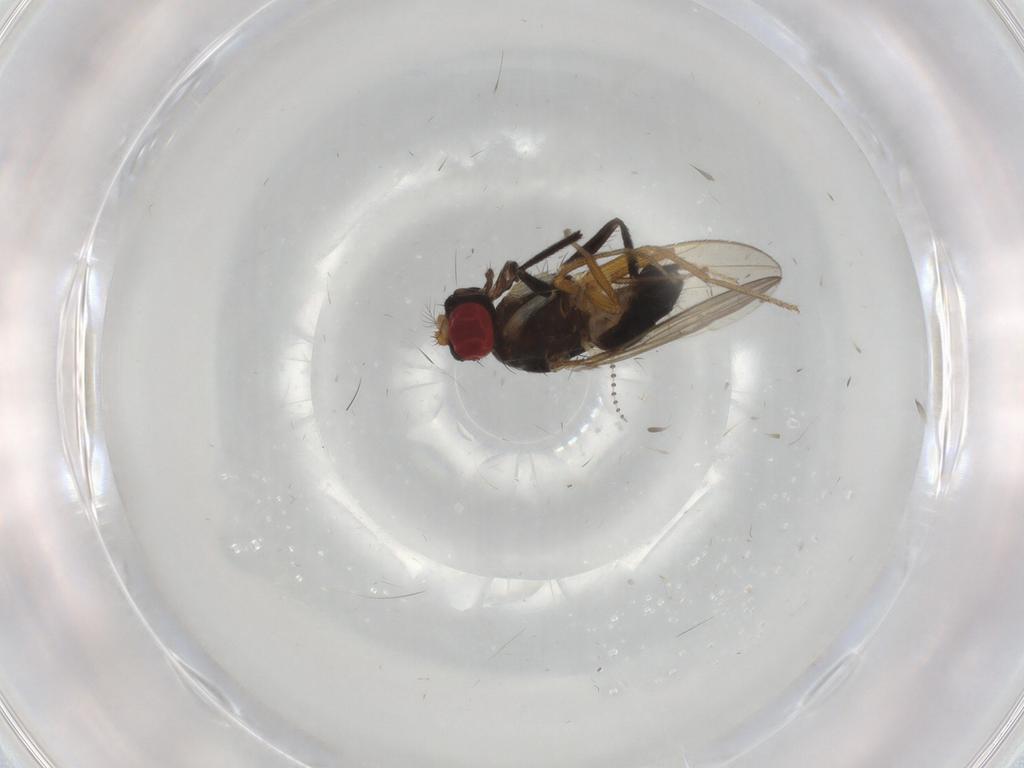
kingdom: Animalia
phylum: Arthropoda
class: Insecta
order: Diptera
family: Drosophilidae
